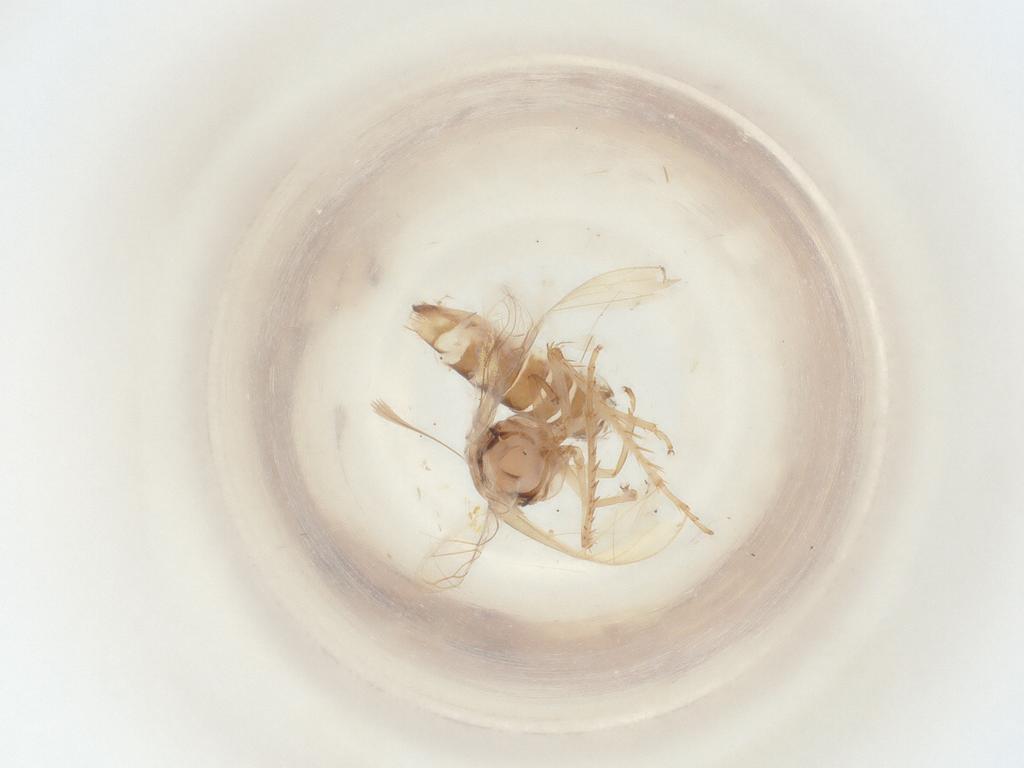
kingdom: Animalia
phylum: Arthropoda
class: Insecta
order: Hemiptera
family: Cicadellidae
